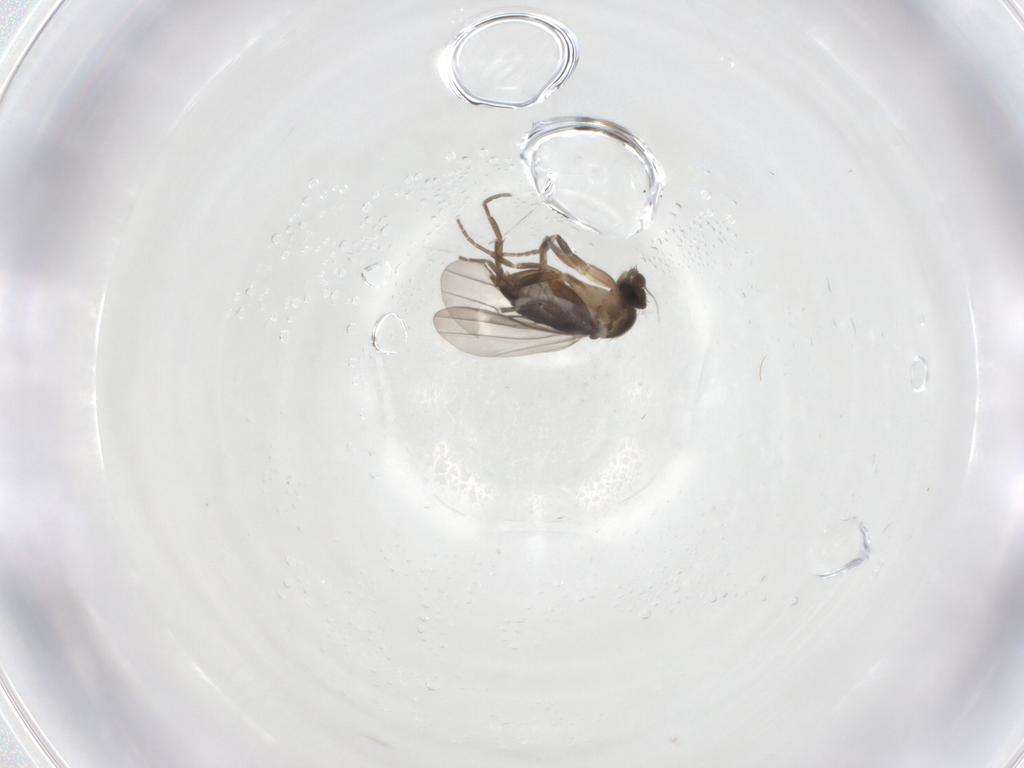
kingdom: Animalia
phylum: Arthropoda
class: Insecta
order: Diptera
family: Phoridae
